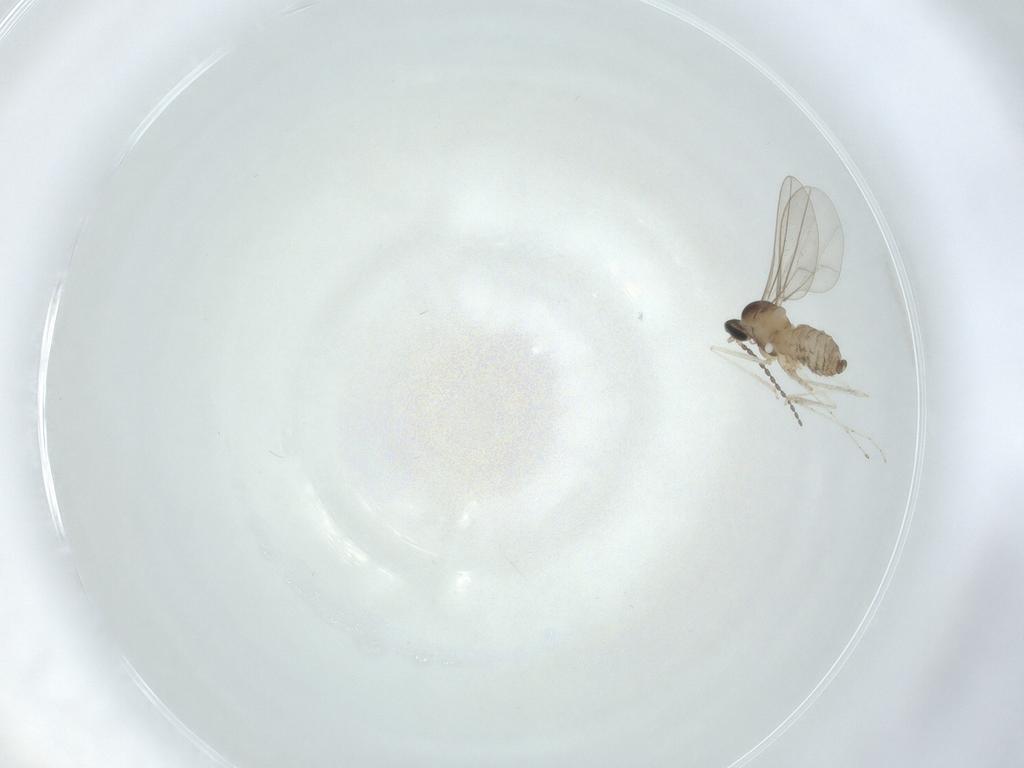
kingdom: Animalia
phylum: Arthropoda
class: Insecta
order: Diptera
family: Cecidomyiidae
